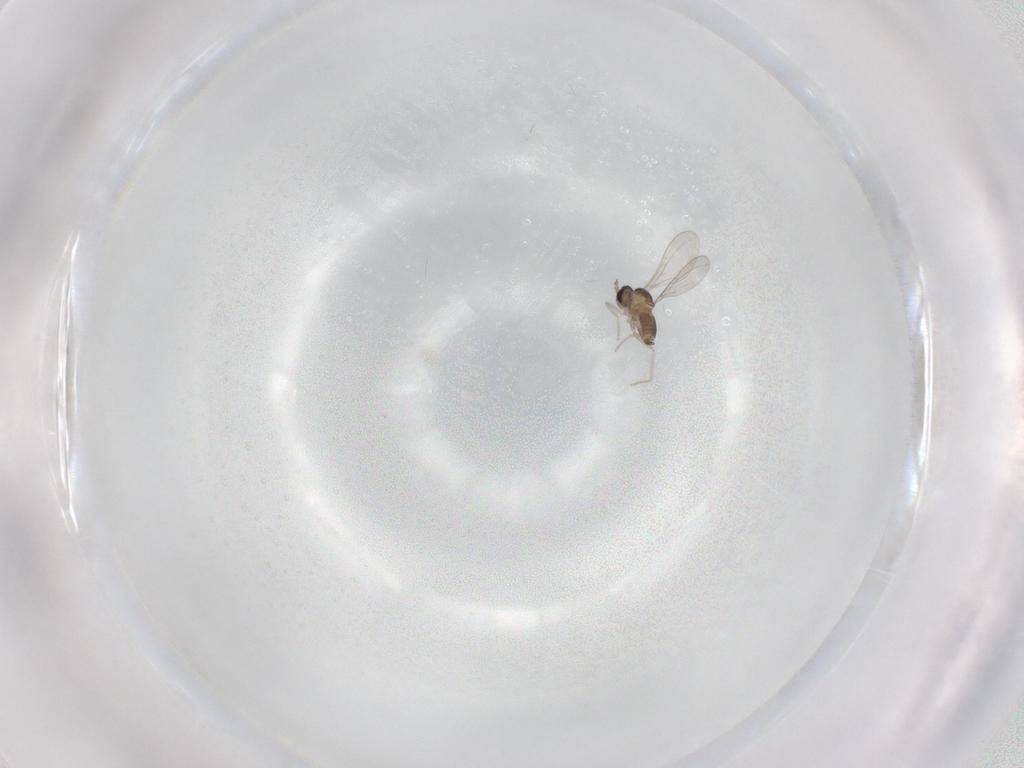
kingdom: Animalia
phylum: Arthropoda
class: Insecta
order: Diptera
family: Cecidomyiidae
